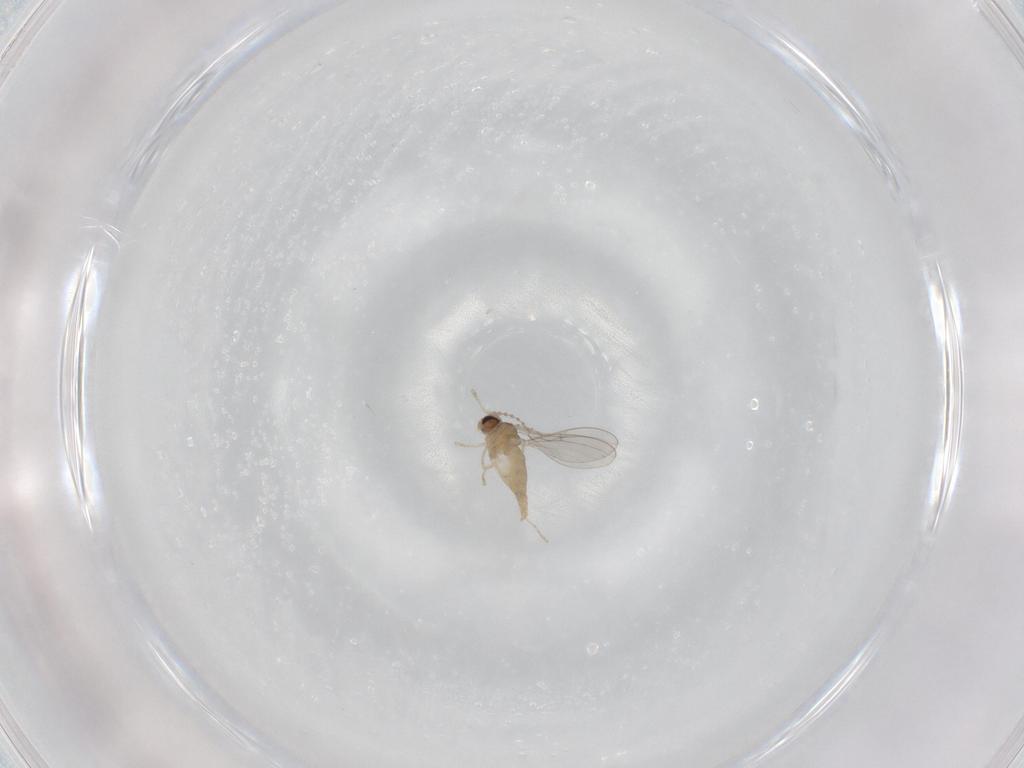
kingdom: Animalia
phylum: Arthropoda
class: Insecta
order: Diptera
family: Cecidomyiidae
